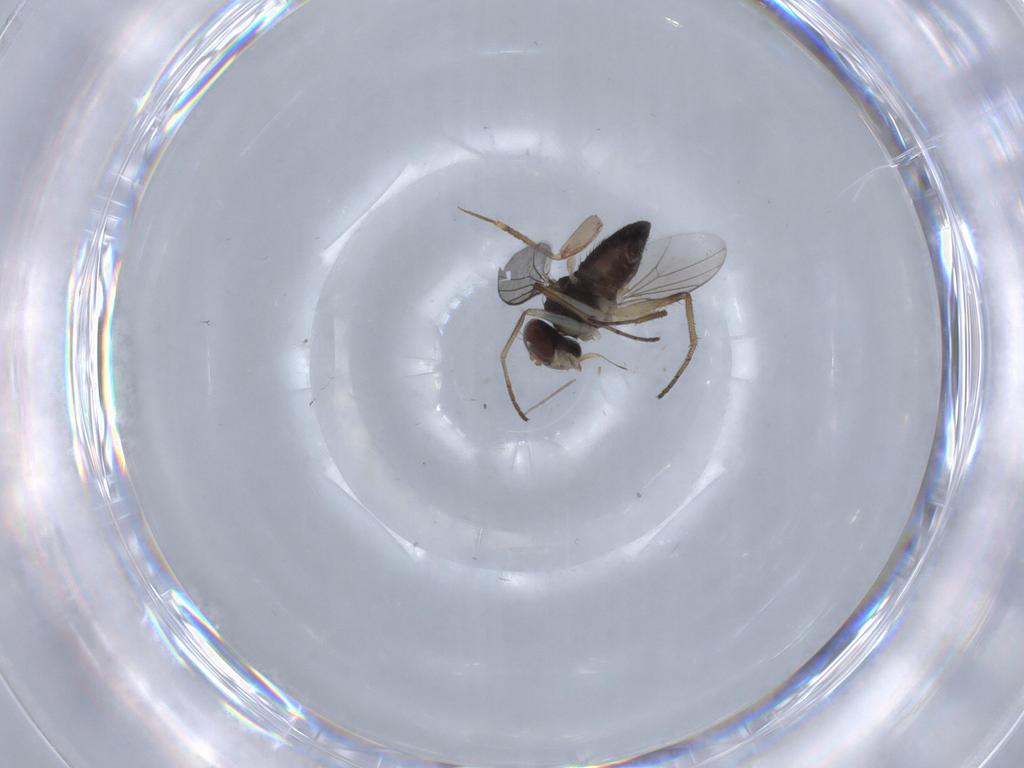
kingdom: Animalia
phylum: Arthropoda
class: Insecta
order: Diptera
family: Dolichopodidae
